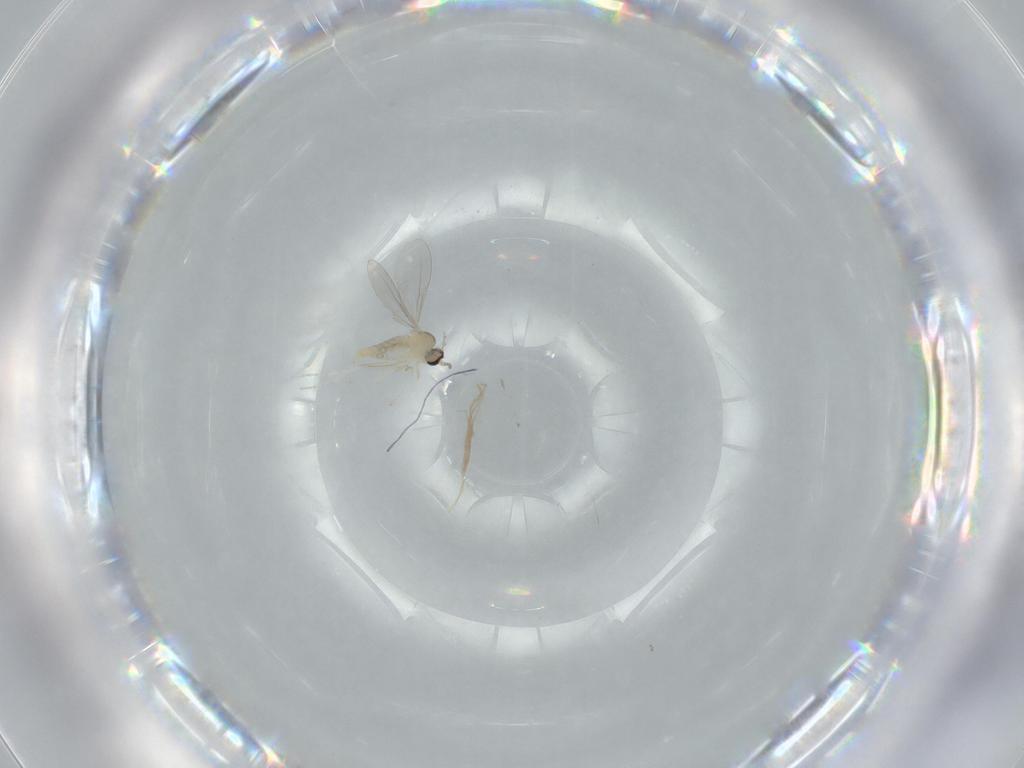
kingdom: Animalia
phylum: Arthropoda
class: Insecta
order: Diptera
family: Cecidomyiidae
